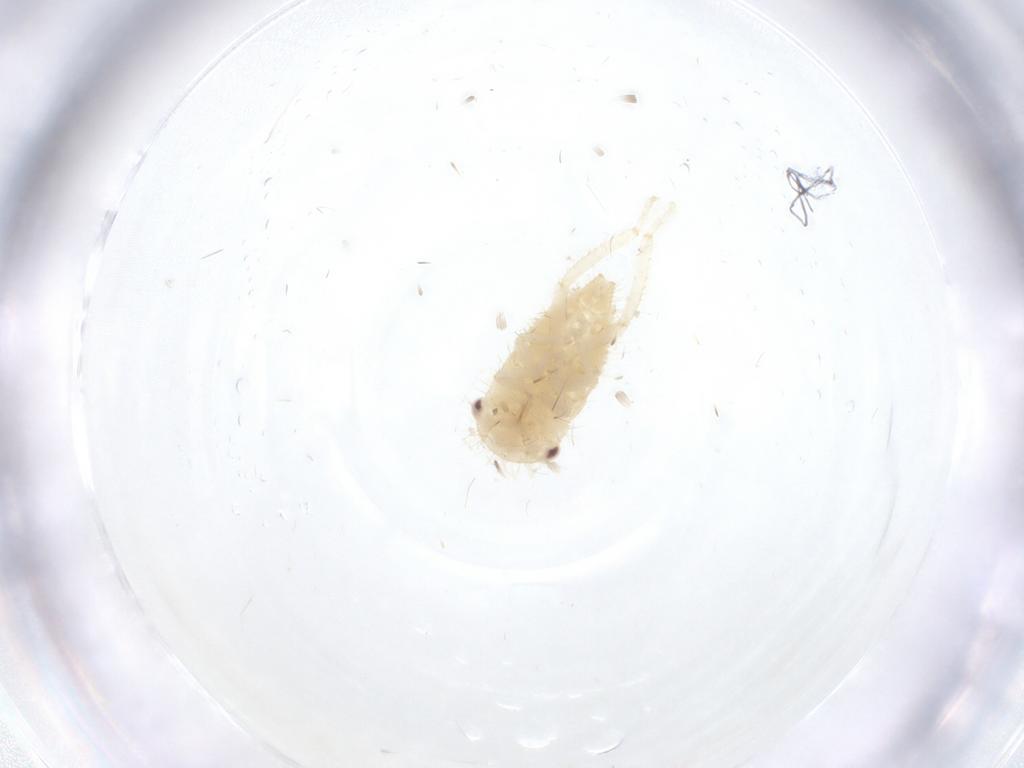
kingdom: Animalia
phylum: Arthropoda
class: Insecta
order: Hemiptera
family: Cicadellidae
